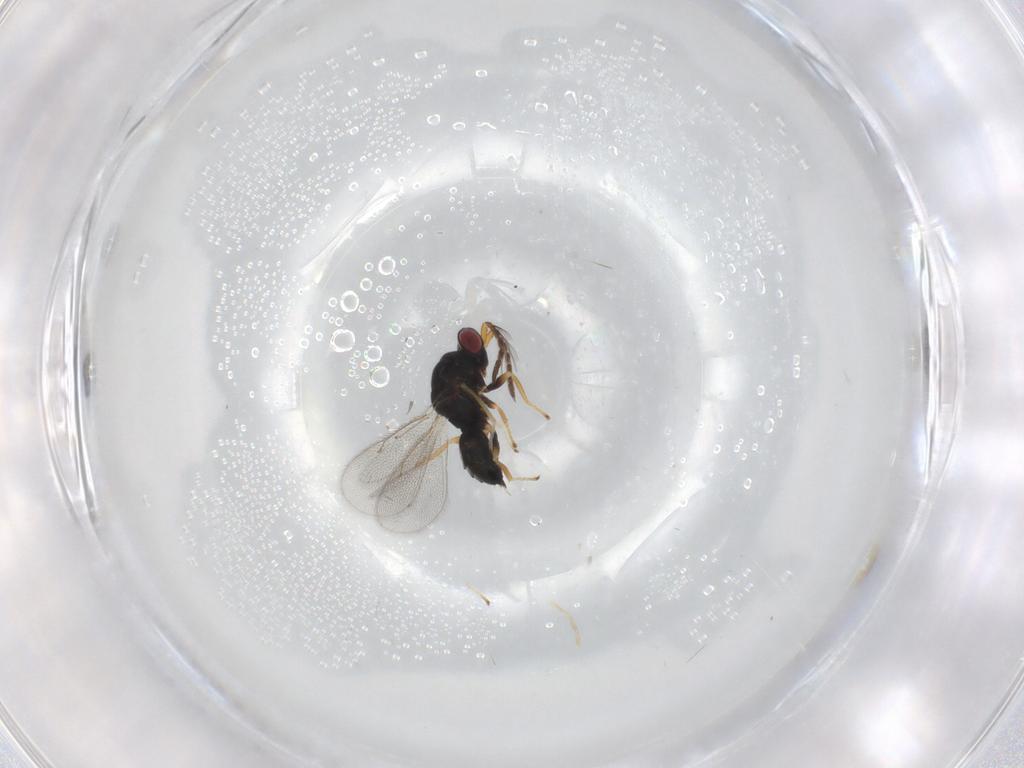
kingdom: Animalia
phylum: Arthropoda
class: Insecta
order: Hymenoptera
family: Eulophidae
